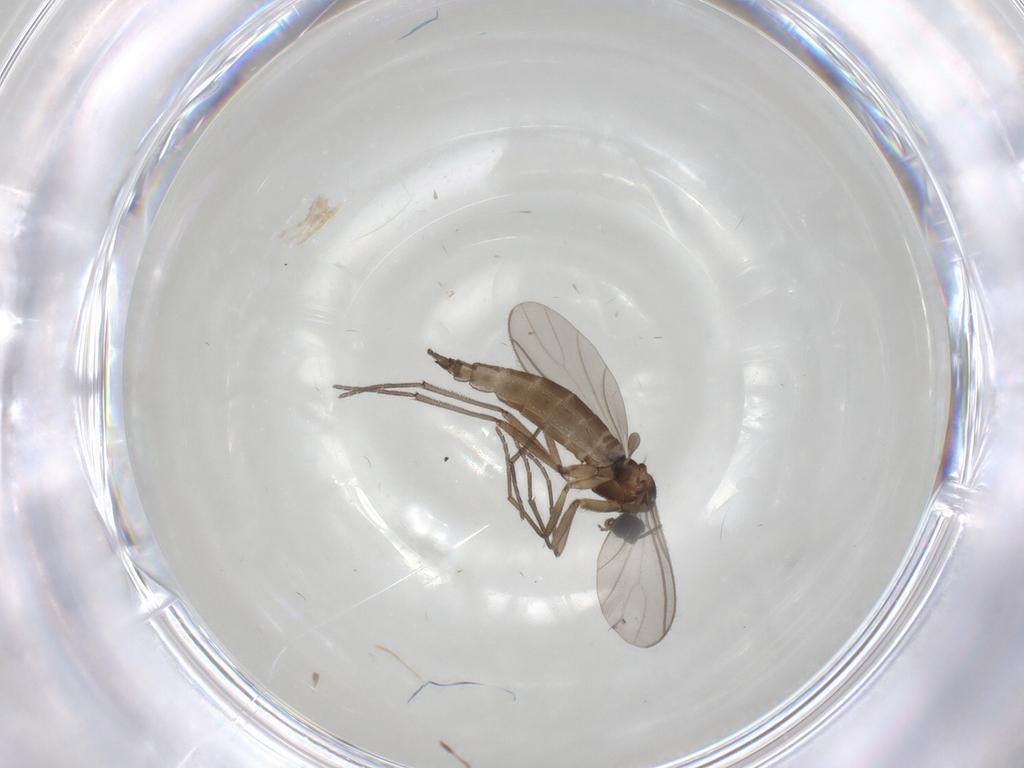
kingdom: Animalia
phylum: Arthropoda
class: Insecta
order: Diptera
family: Sciaridae
